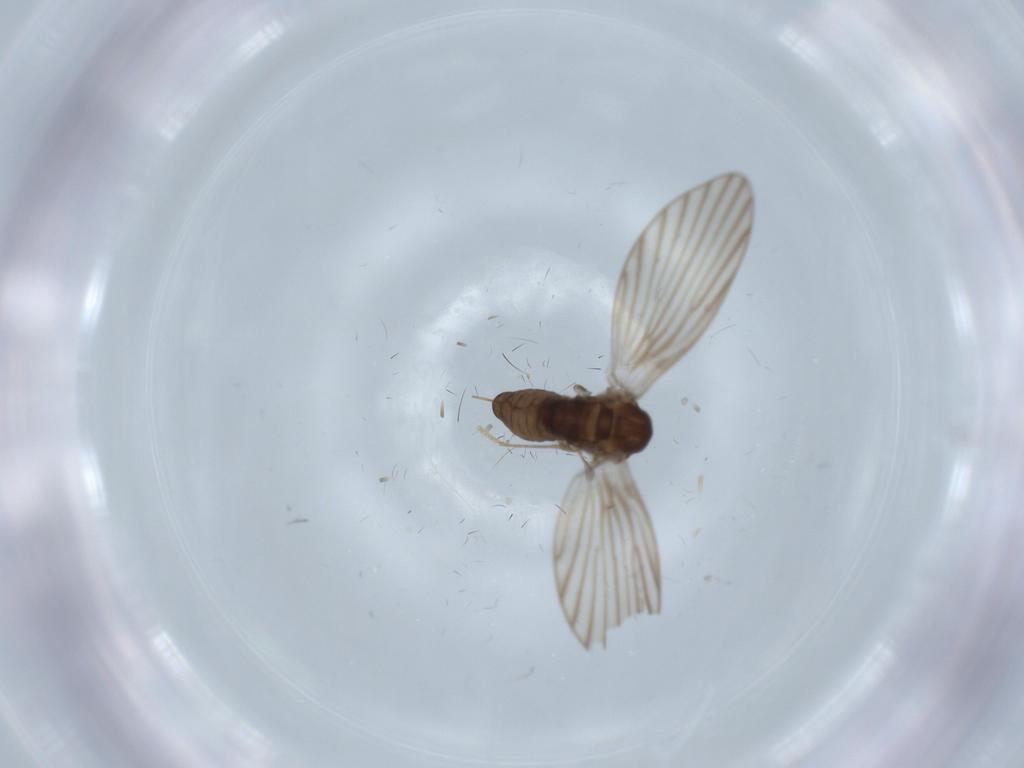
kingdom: Animalia
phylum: Arthropoda
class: Insecta
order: Diptera
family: Psychodidae
